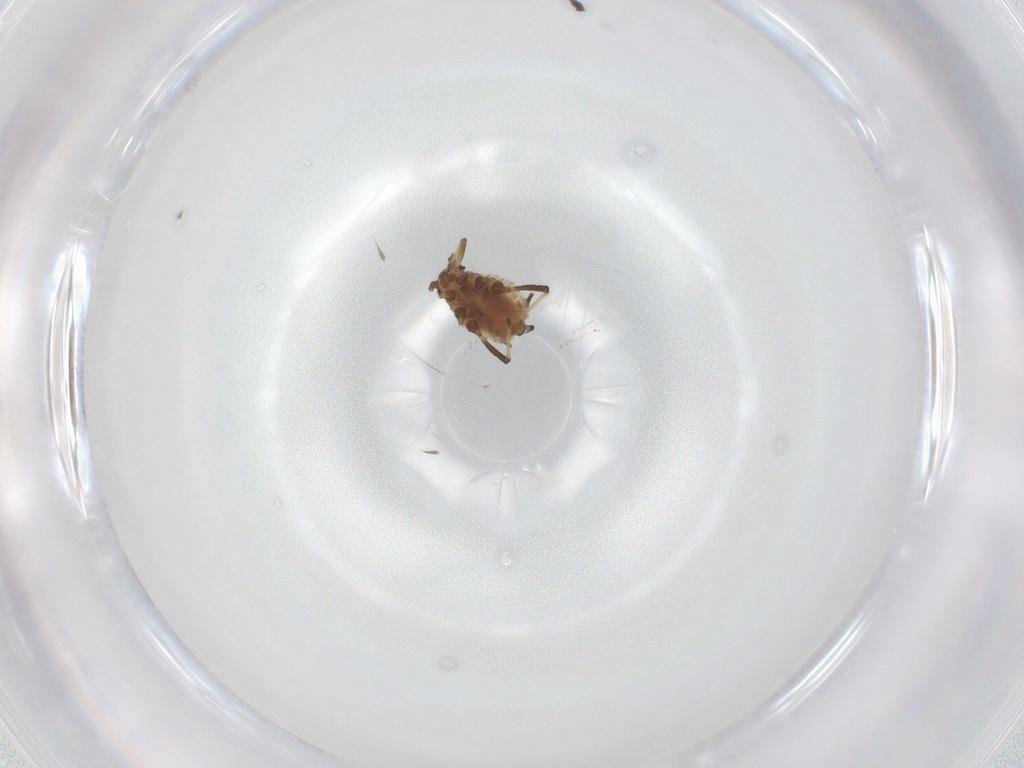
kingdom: Animalia
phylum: Arthropoda
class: Insecta
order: Hemiptera
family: Aphididae
